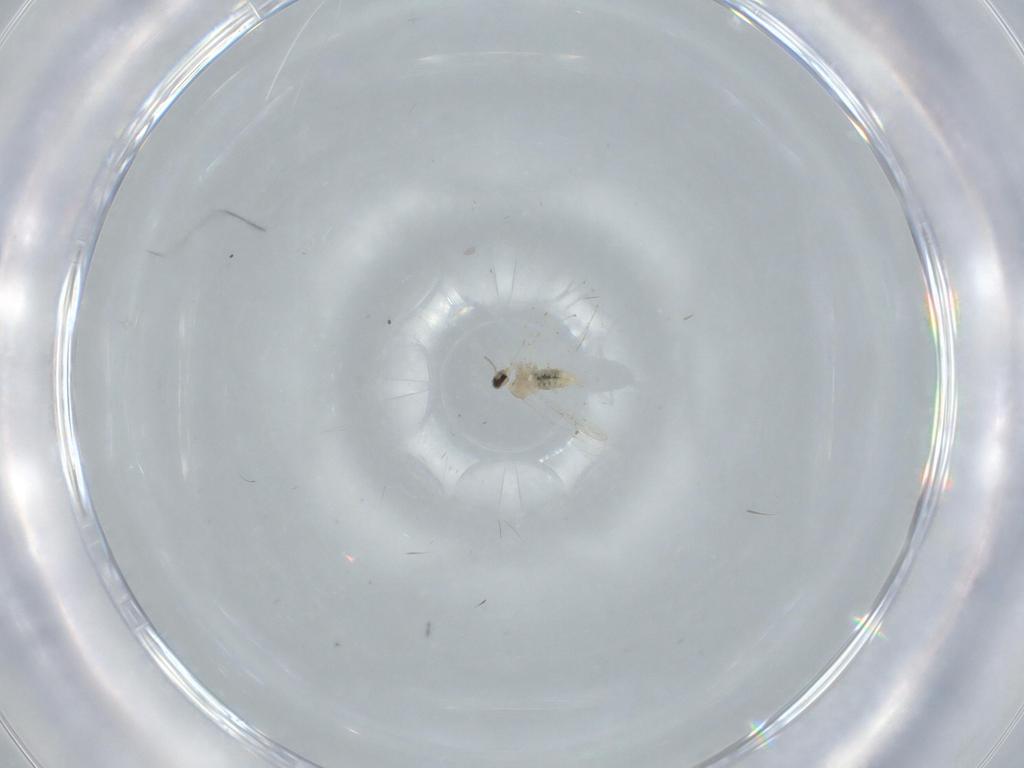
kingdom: Animalia
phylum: Arthropoda
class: Insecta
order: Diptera
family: Cecidomyiidae
